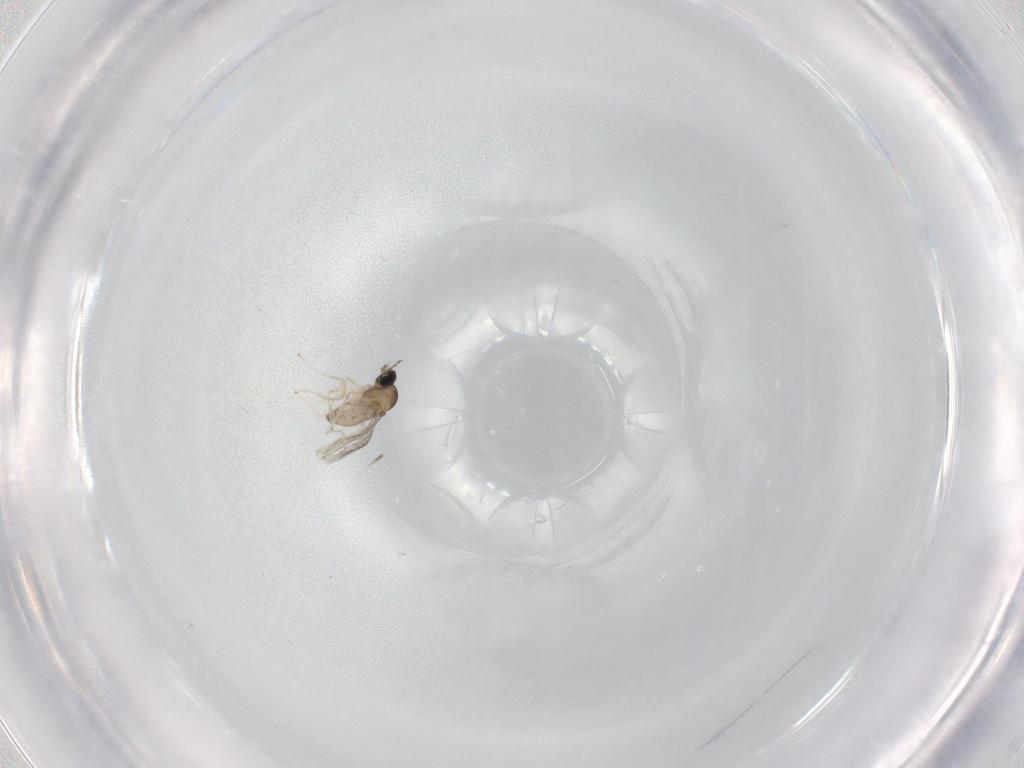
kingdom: Animalia
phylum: Arthropoda
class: Insecta
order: Diptera
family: Cecidomyiidae
